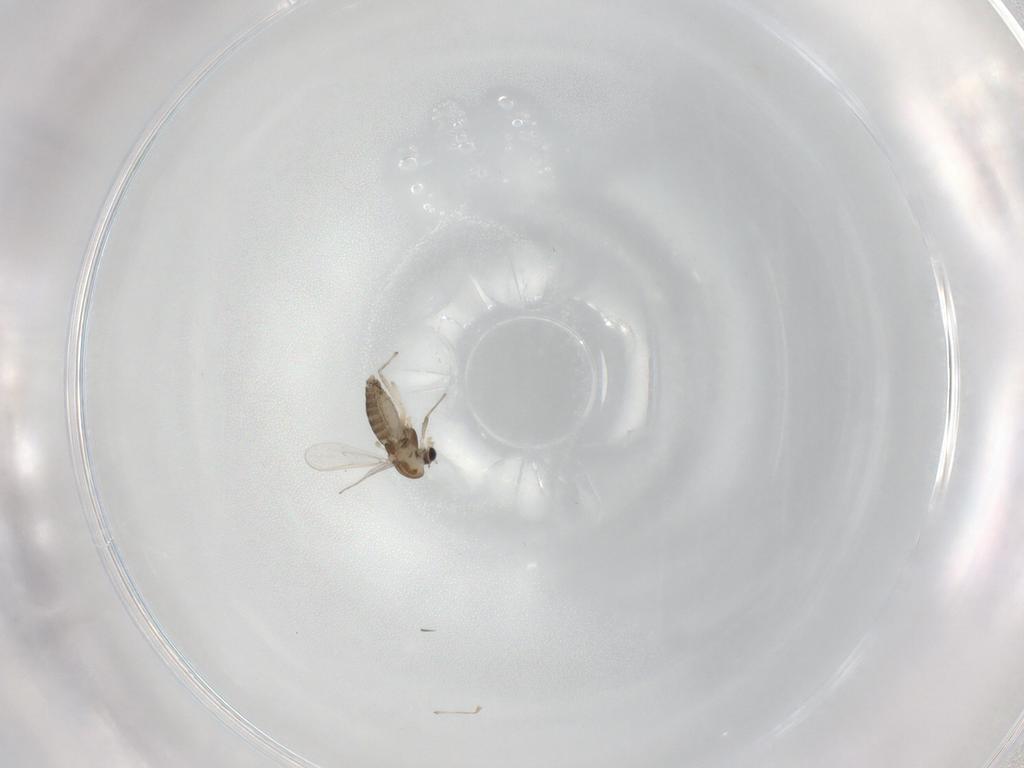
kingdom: Animalia
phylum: Arthropoda
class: Insecta
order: Diptera
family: Chironomidae
